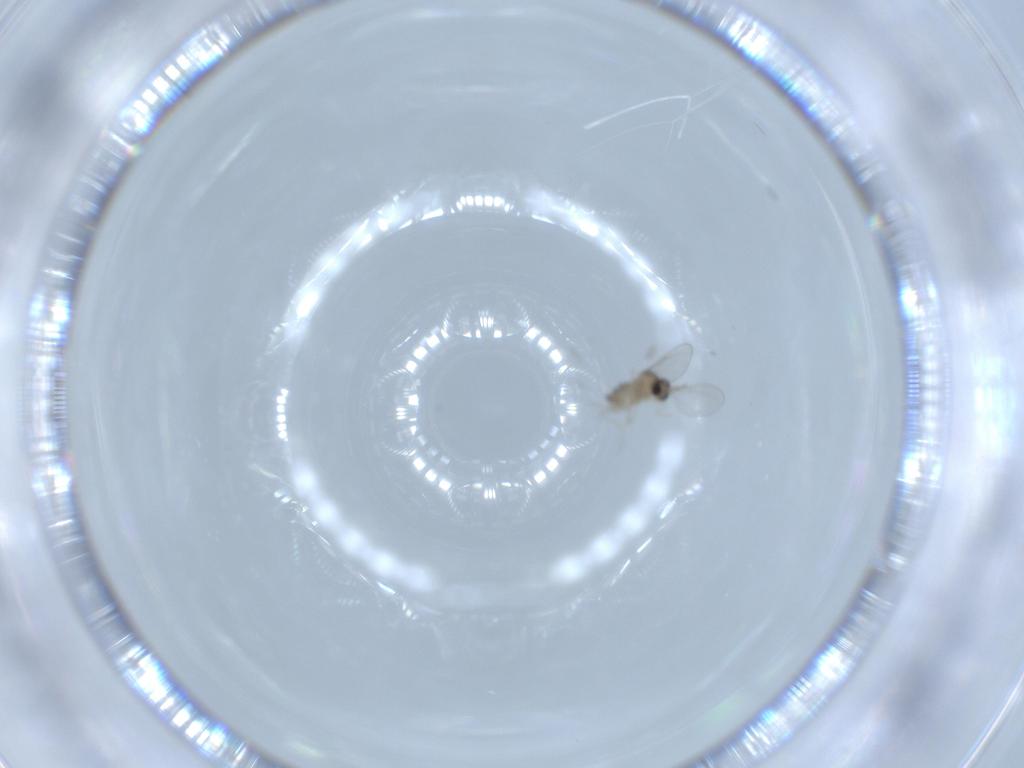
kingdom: Animalia
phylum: Arthropoda
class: Insecta
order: Diptera
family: Cecidomyiidae
